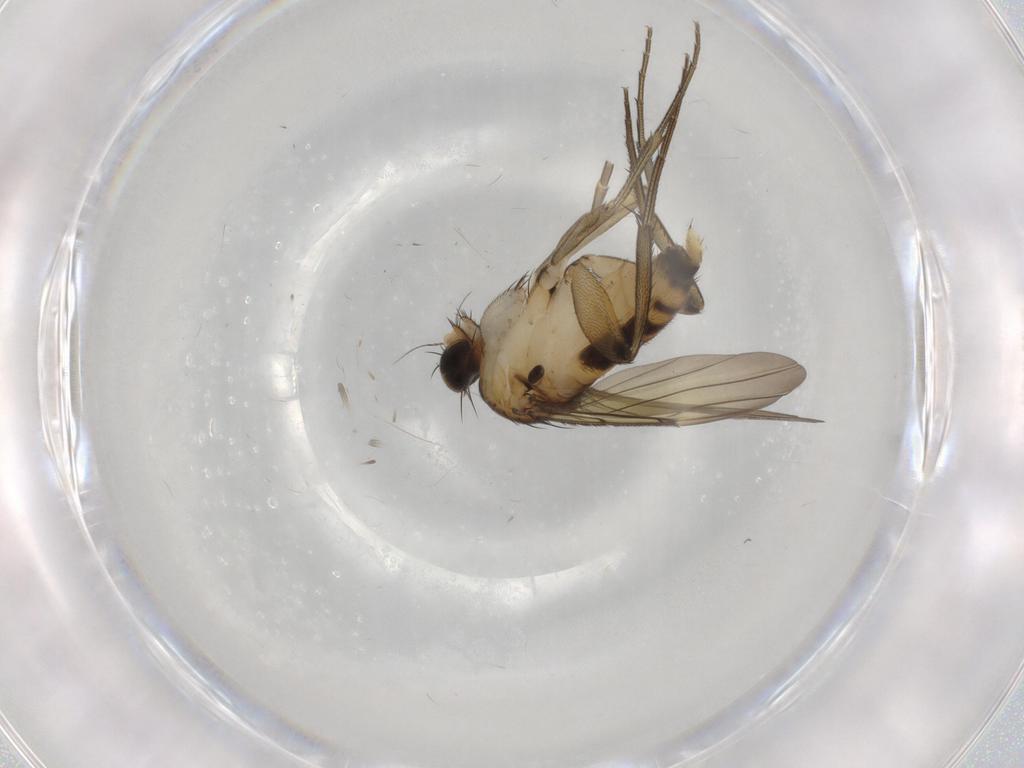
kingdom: Animalia
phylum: Arthropoda
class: Insecta
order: Diptera
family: Phoridae
